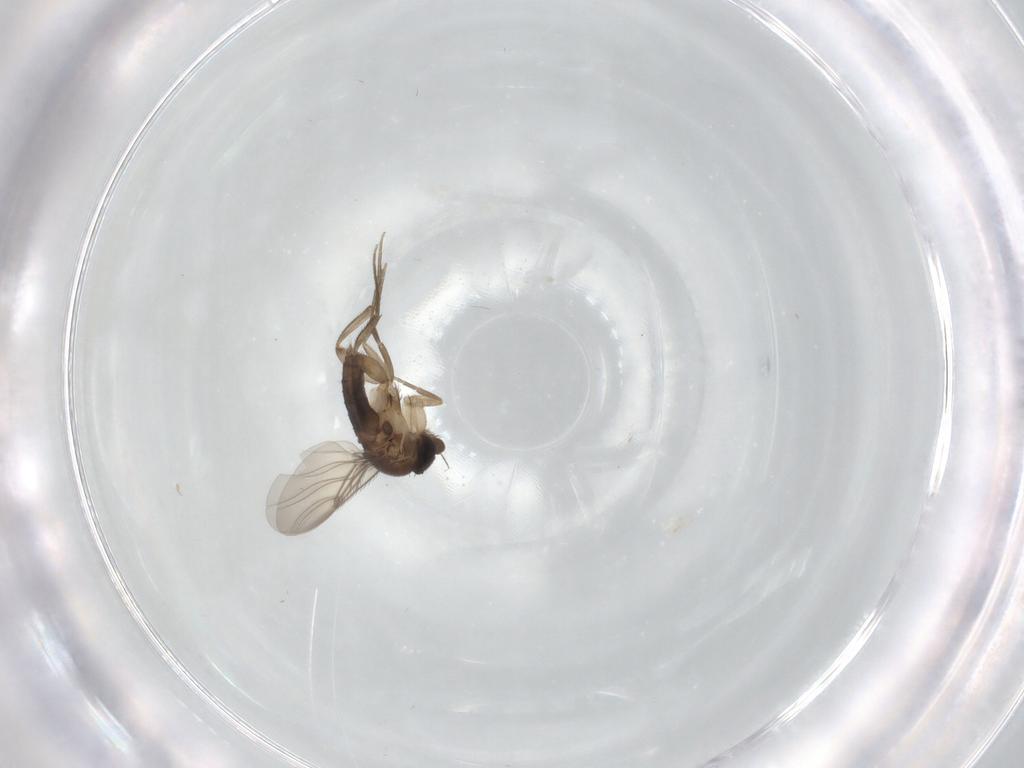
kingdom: Animalia
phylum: Arthropoda
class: Insecta
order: Diptera
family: Phoridae
